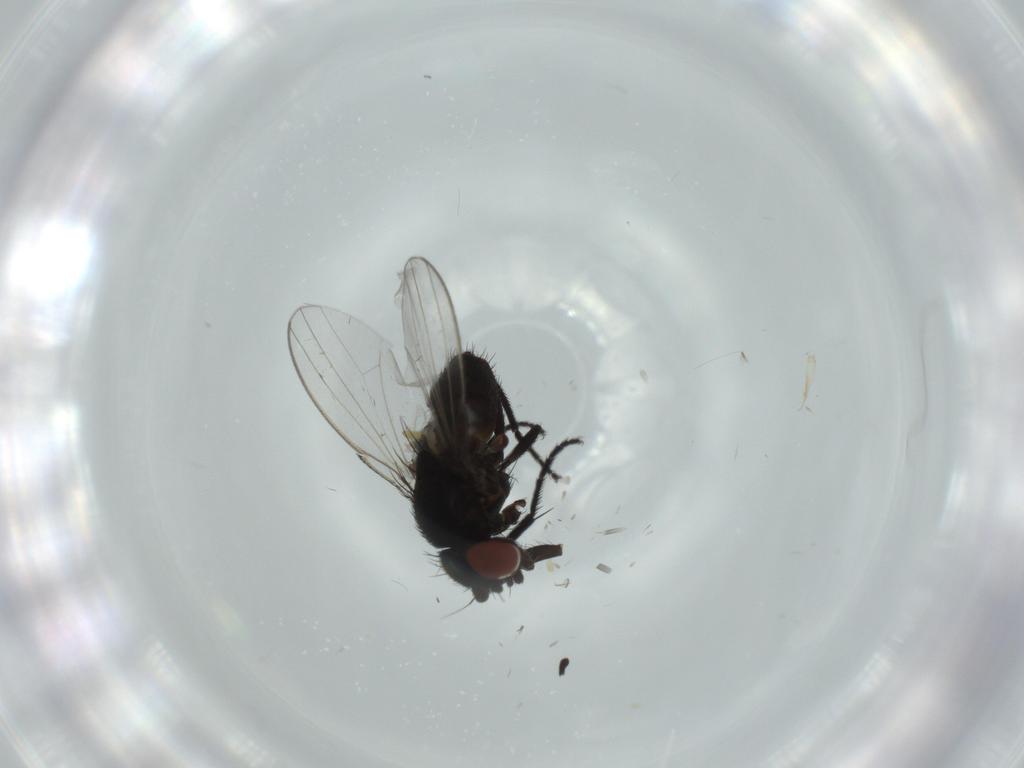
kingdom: Animalia
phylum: Arthropoda
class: Insecta
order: Diptera
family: Milichiidae
